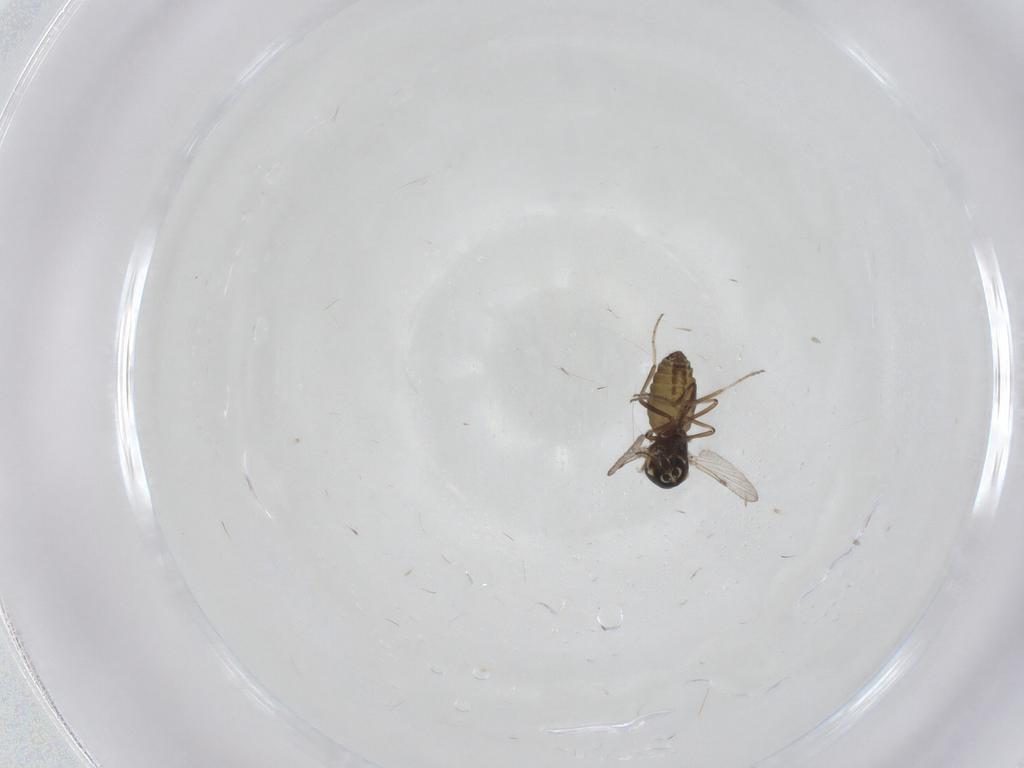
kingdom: Animalia
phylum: Arthropoda
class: Insecta
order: Diptera
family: Ceratopogonidae
